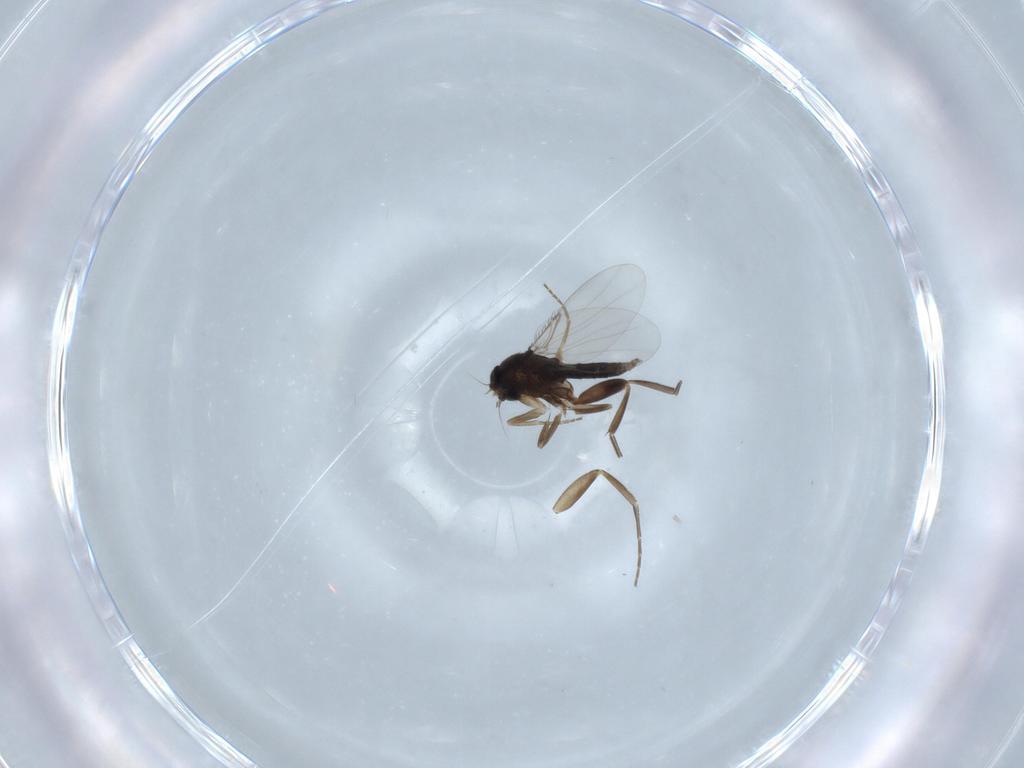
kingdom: Animalia
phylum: Arthropoda
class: Insecta
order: Diptera
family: Phoridae
